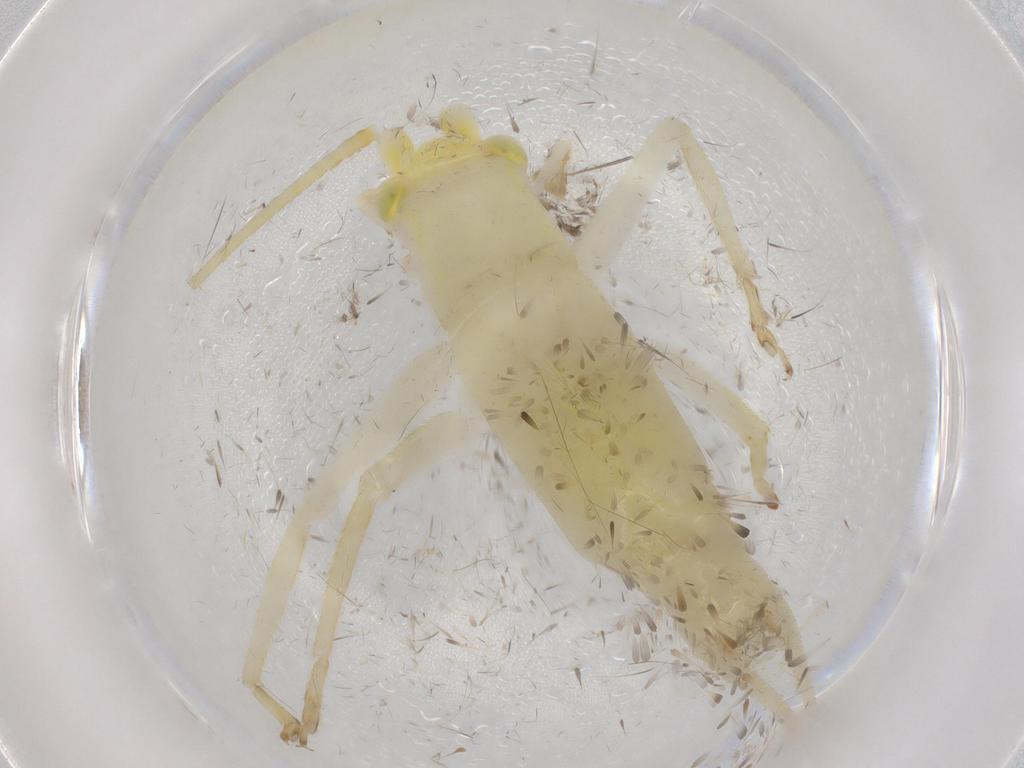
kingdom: Animalia
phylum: Arthropoda
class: Insecta
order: Orthoptera
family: Trigonidiidae
